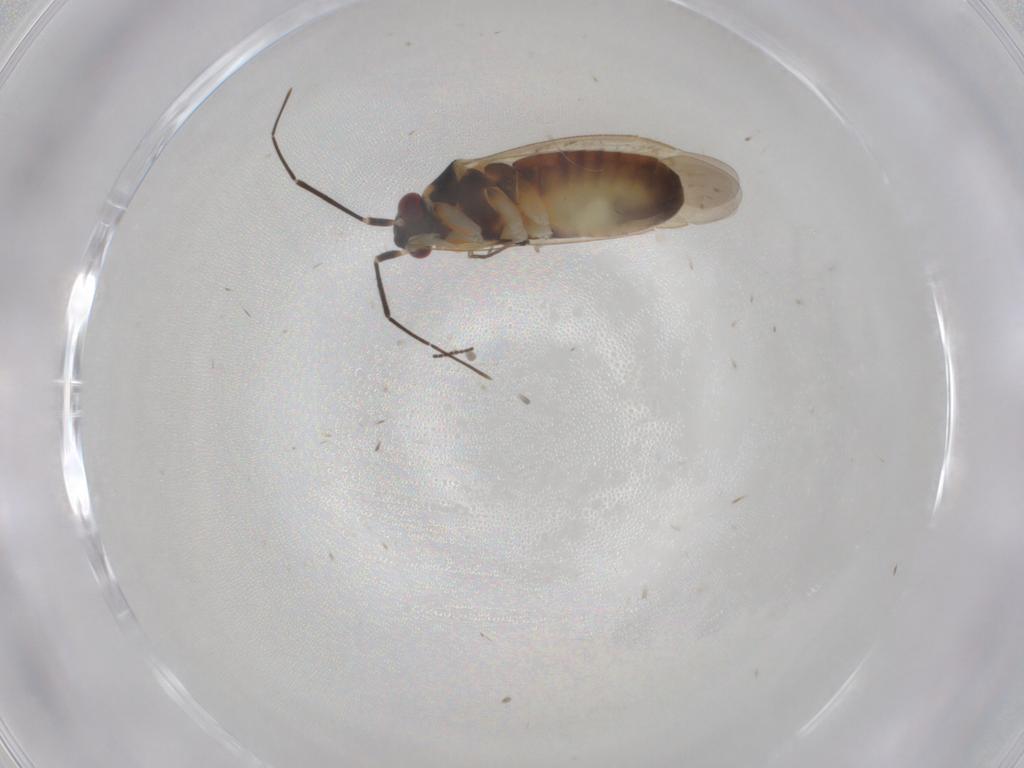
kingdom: Animalia
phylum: Arthropoda
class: Insecta
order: Hemiptera
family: Miridae
